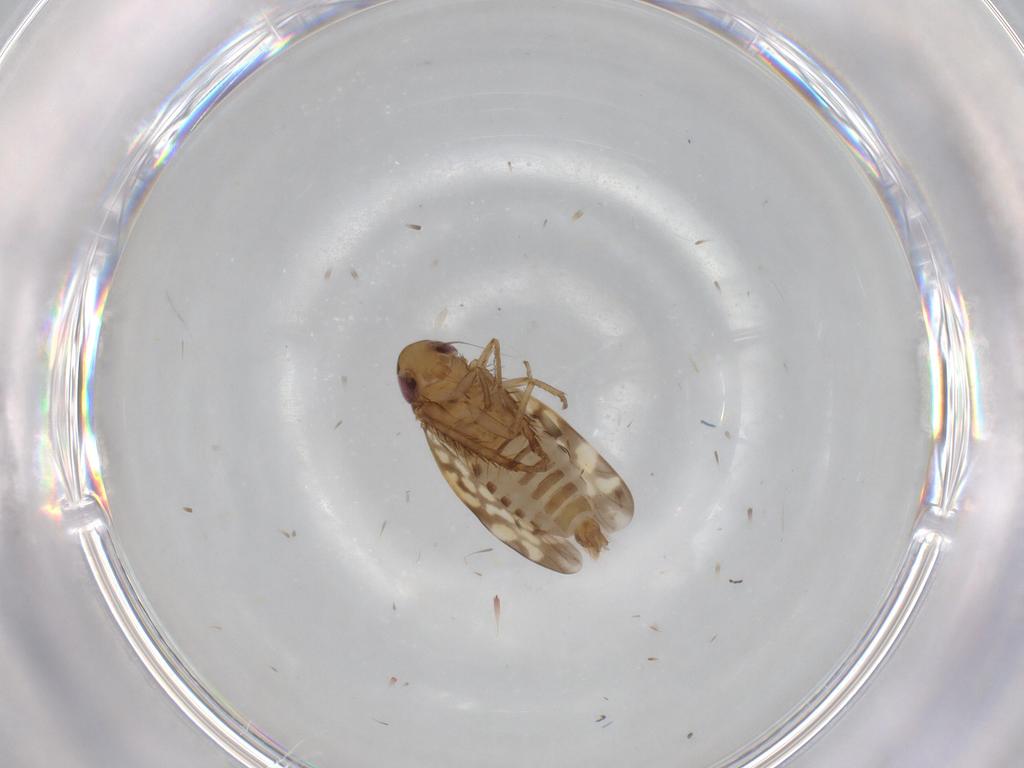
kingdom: Animalia
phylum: Arthropoda
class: Insecta
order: Hemiptera
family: Cicadellidae
